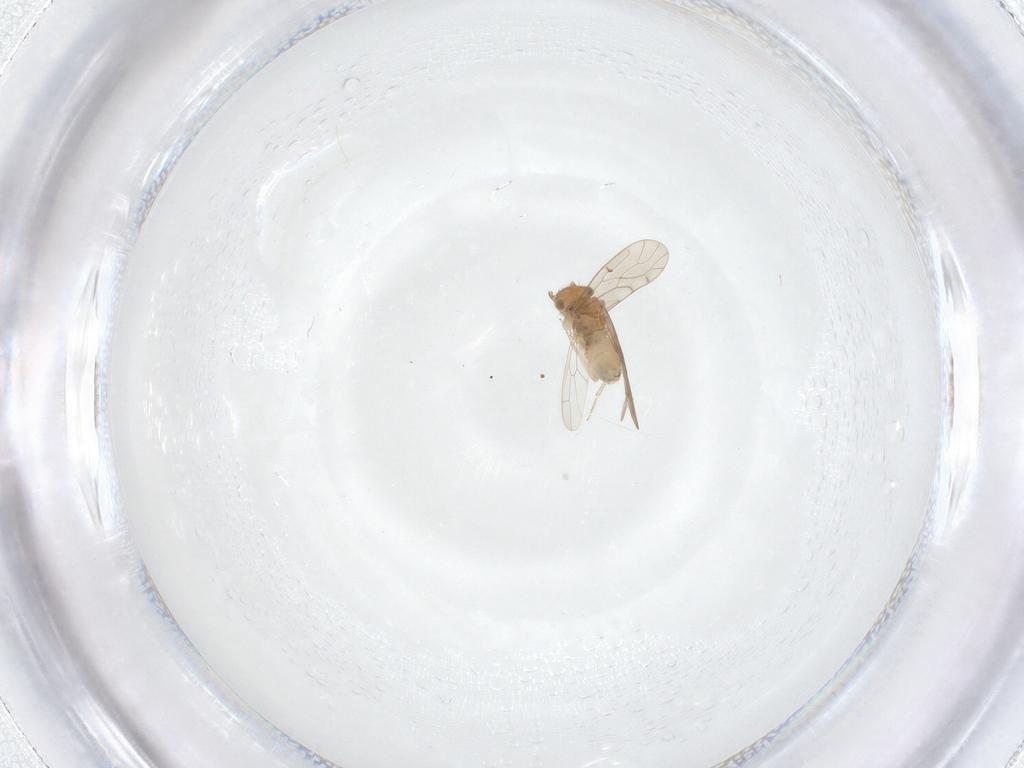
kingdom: Animalia
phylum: Arthropoda
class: Insecta
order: Psocodea
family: Ectopsocidae
